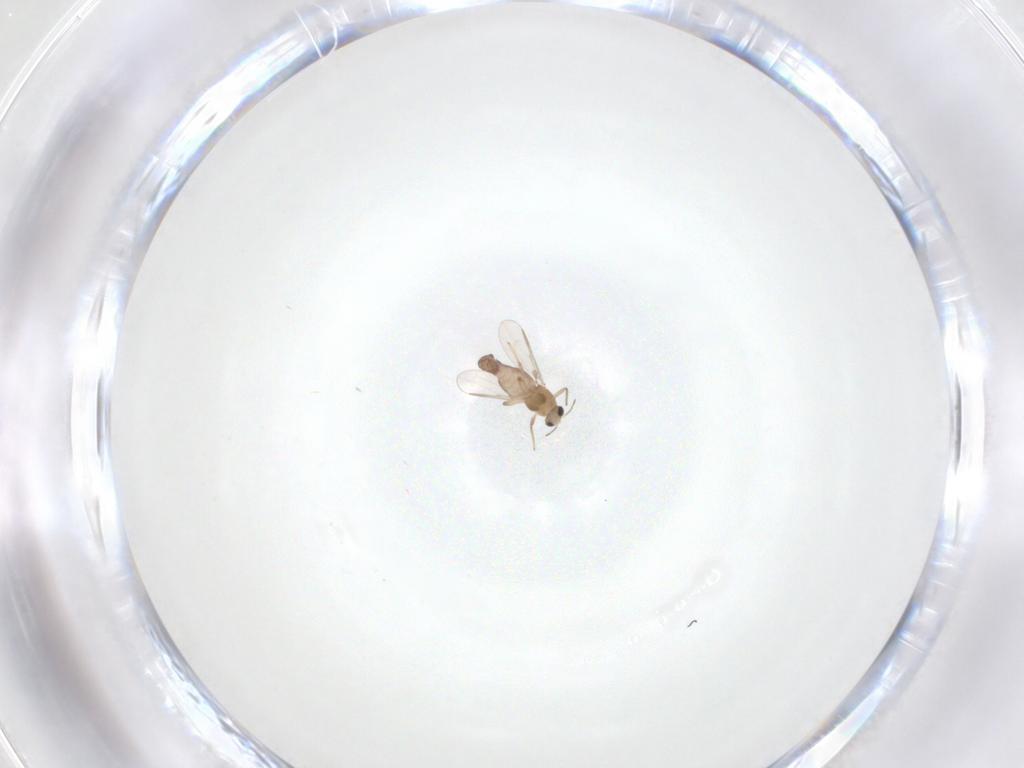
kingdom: Animalia
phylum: Arthropoda
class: Insecta
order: Diptera
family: Chironomidae
